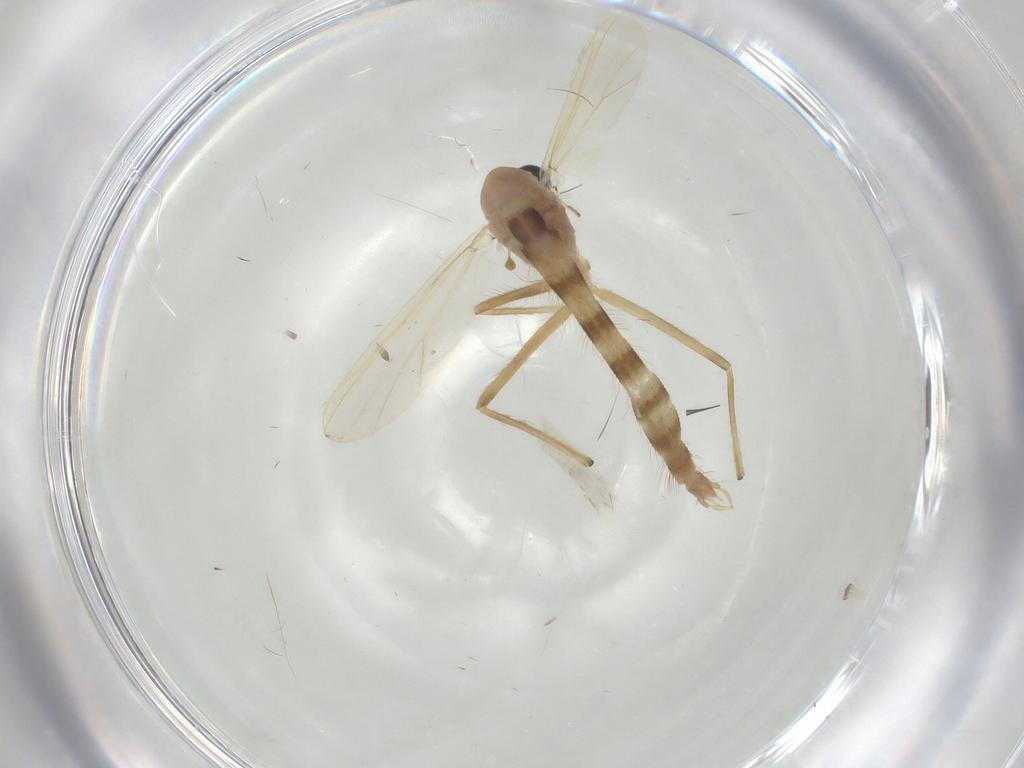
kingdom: Animalia
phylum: Arthropoda
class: Insecta
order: Diptera
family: Chironomidae
